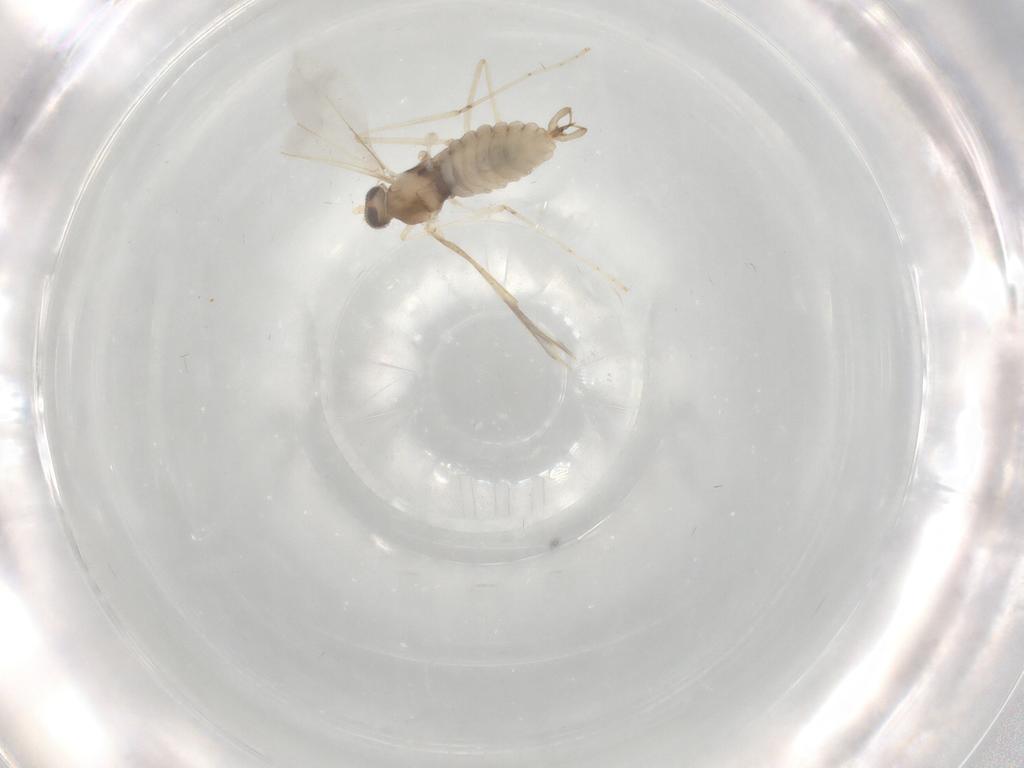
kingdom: Animalia
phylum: Arthropoda
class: Insecta
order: Diptera
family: Cecidomyiidae
